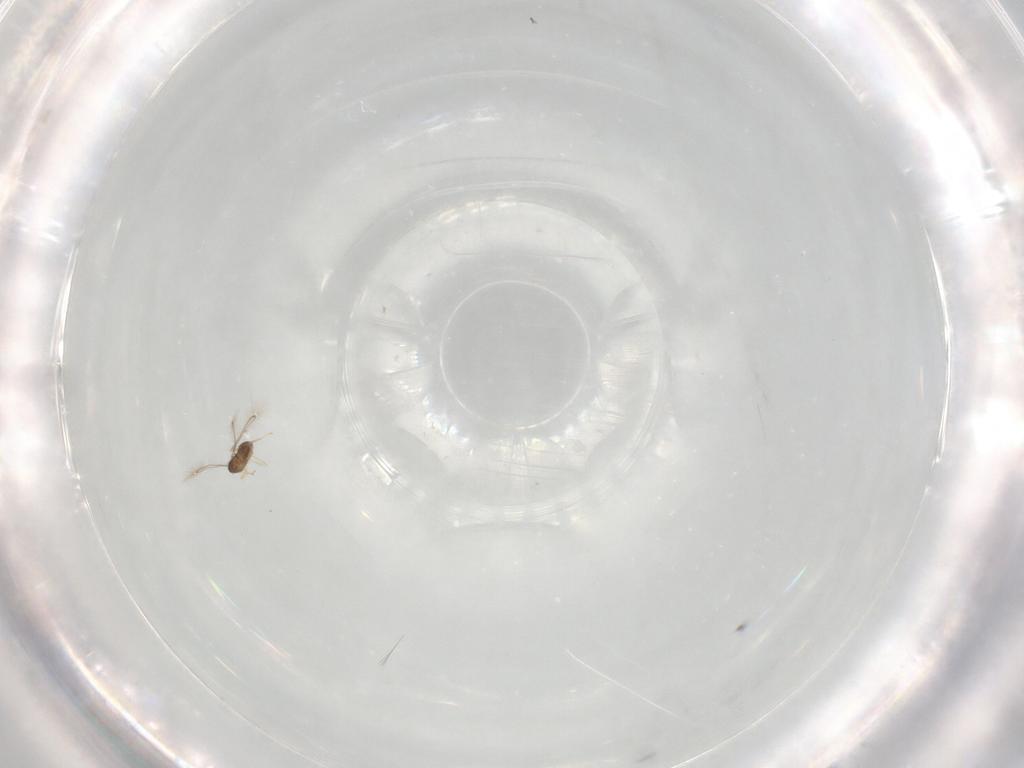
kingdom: Animalia
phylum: Arthropoda
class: Insecta
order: Hymenoptera
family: Mymaridae
